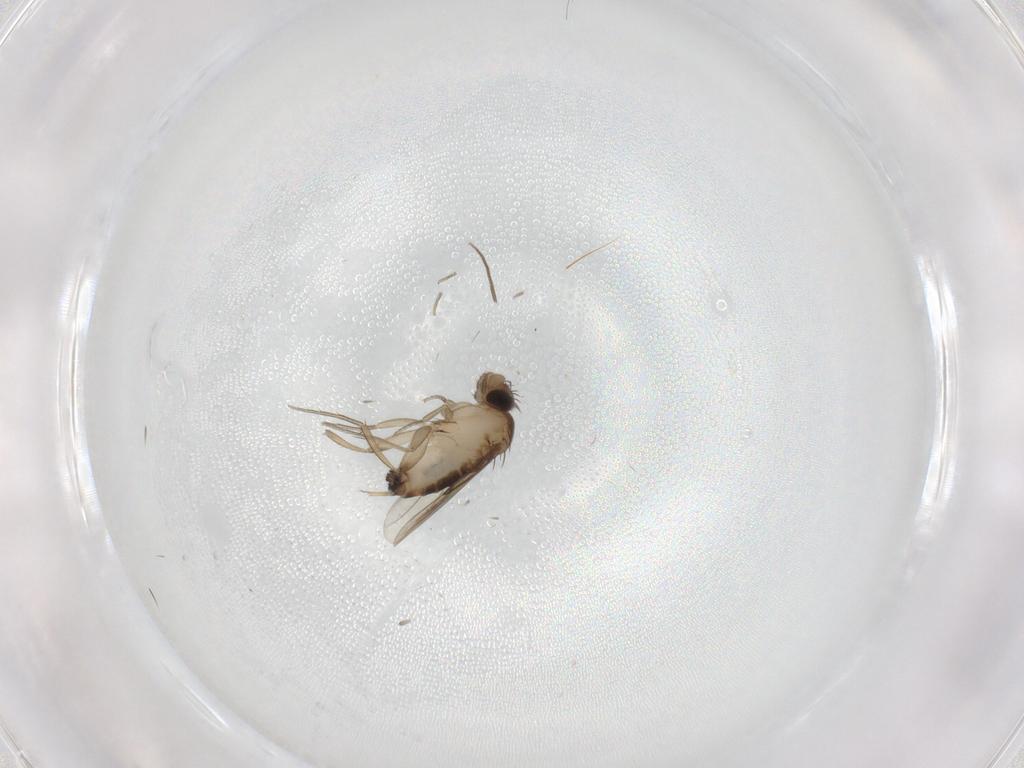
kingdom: Animalia
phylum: Arthropoda
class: Insecta
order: Diptera
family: Phoridae
